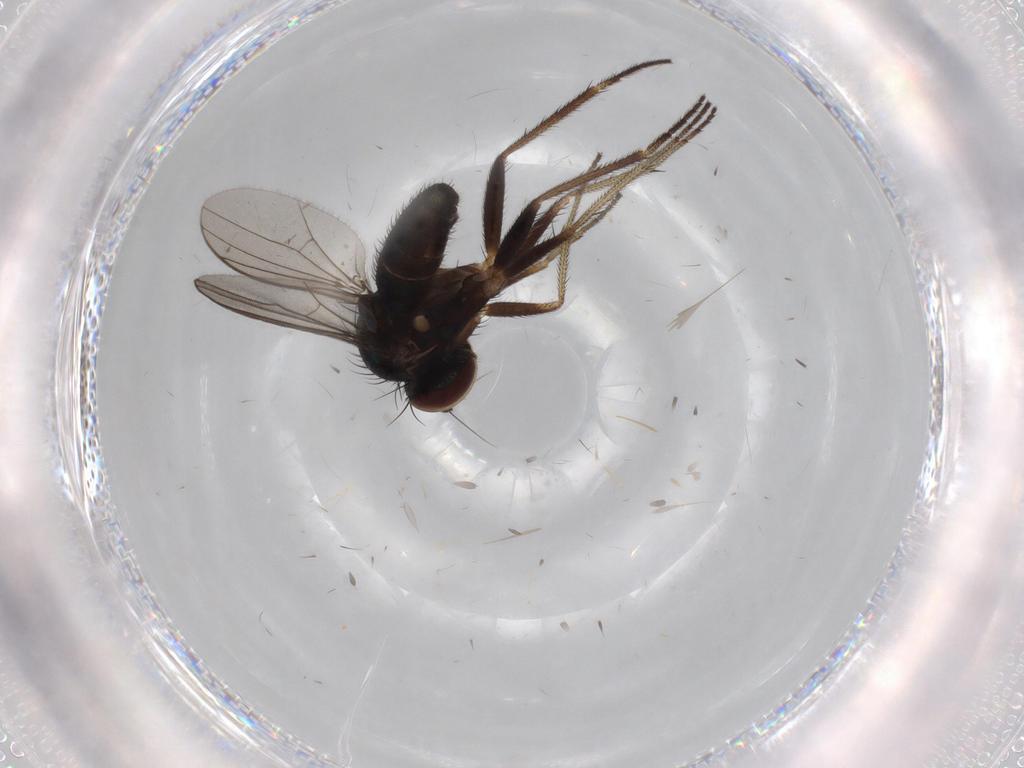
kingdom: Animalia
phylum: Arthropoda
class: Insecta
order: Diptera
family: Dolichopodidae
